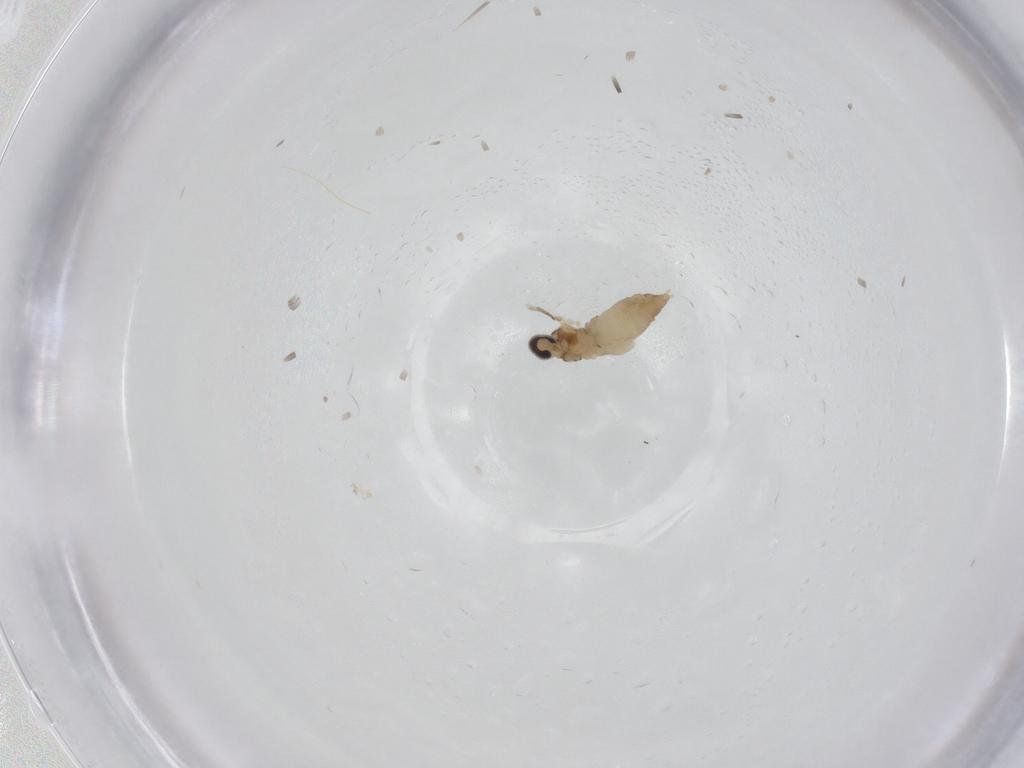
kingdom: Animalia
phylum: Arthropoda
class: Insecta
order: Diptera
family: Cecidomyiidae
